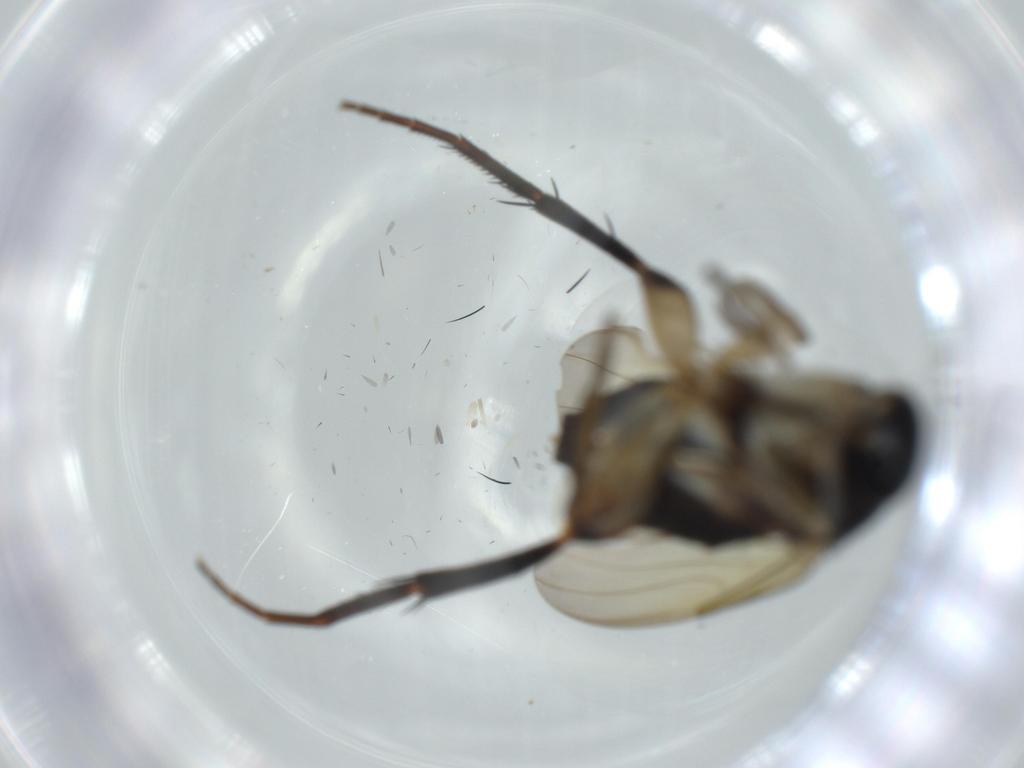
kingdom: Animalia
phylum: Arthropoda
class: Insecta
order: Diptera
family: Phoridae
